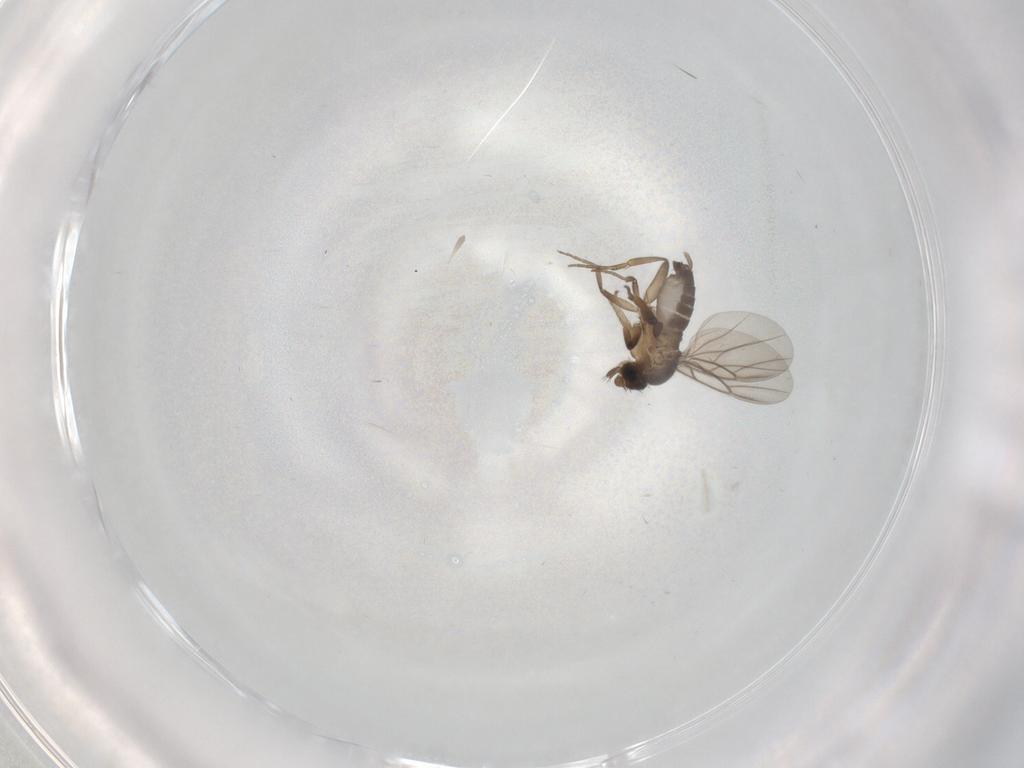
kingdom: Animalia
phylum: Arthropoda
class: Insecta
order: Diptera
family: Phoridae
